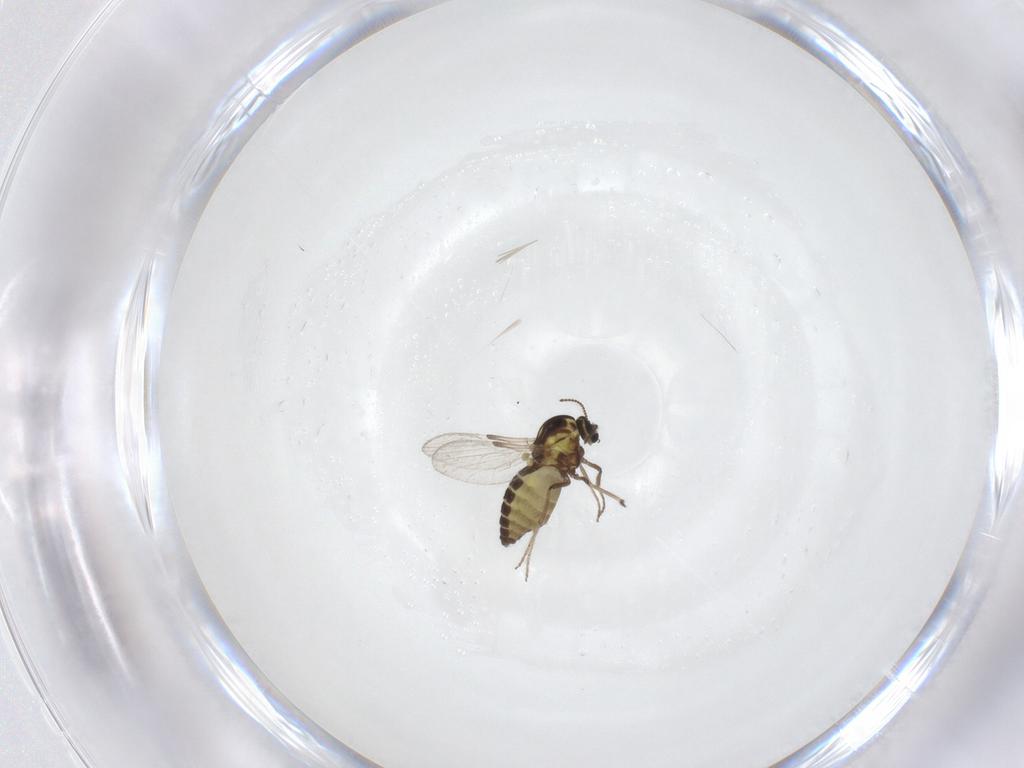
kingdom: Animalia
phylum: Arthropoda
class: Insecta
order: Diptera
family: Ceratopogonidae
